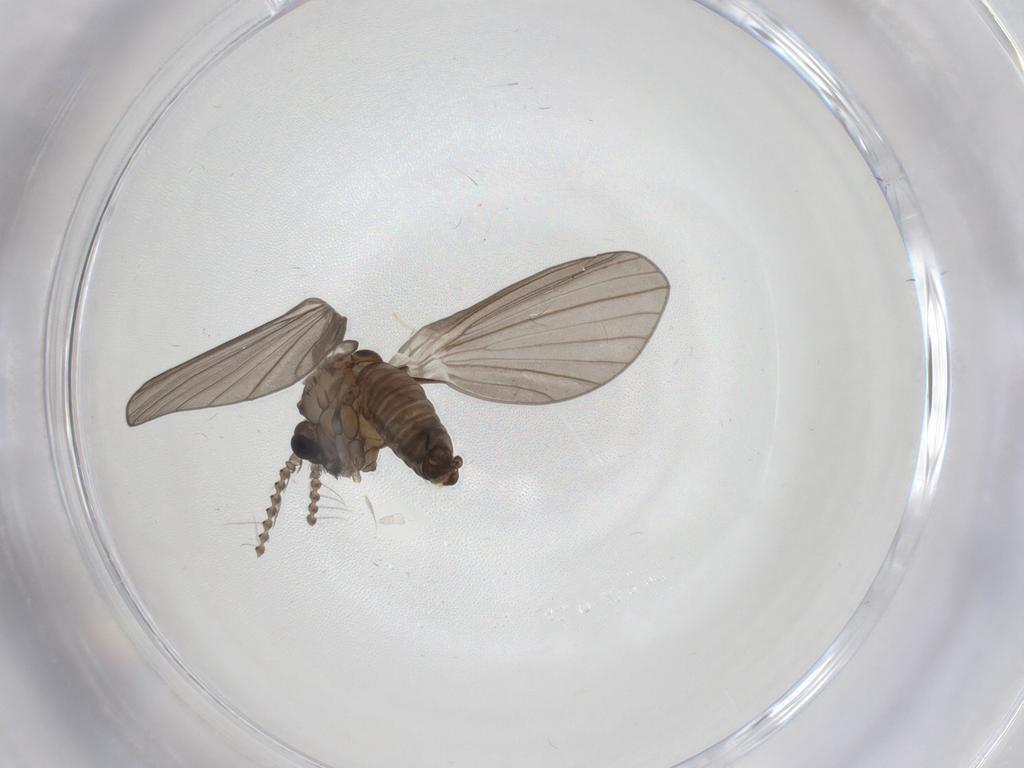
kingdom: Animalia
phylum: Arthropoda
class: Insecta
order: Diptera
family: Psychodidae
